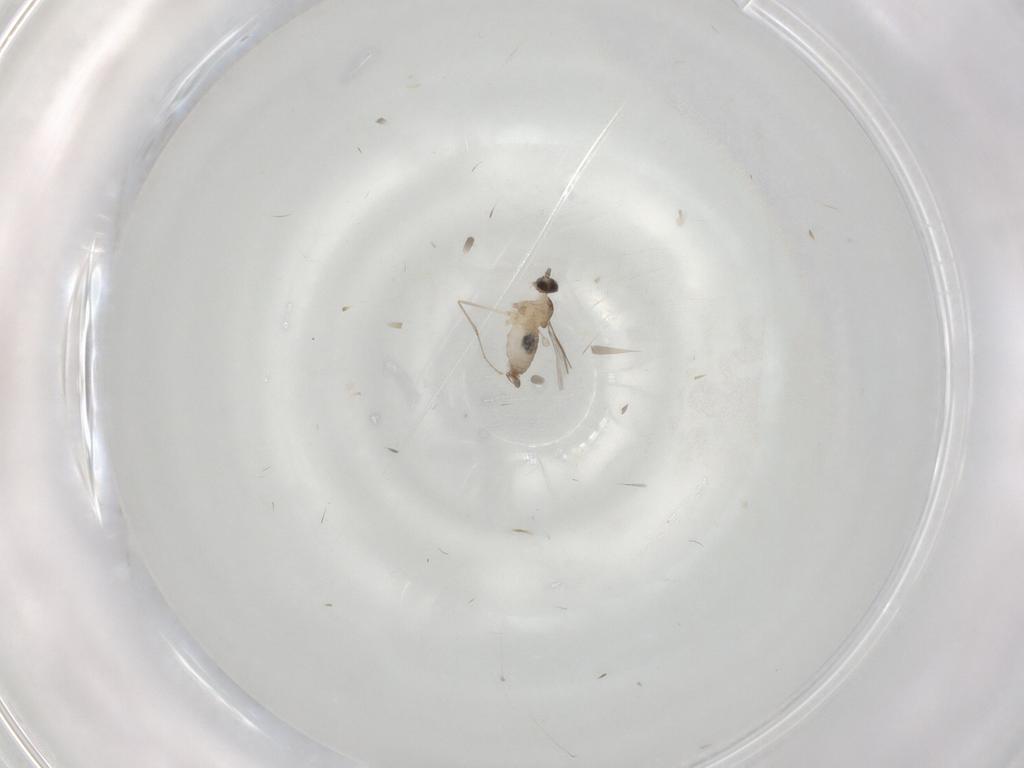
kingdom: Animalia
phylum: Arthropoda
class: Insecta
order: Diptera
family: Cecidomyiidae
